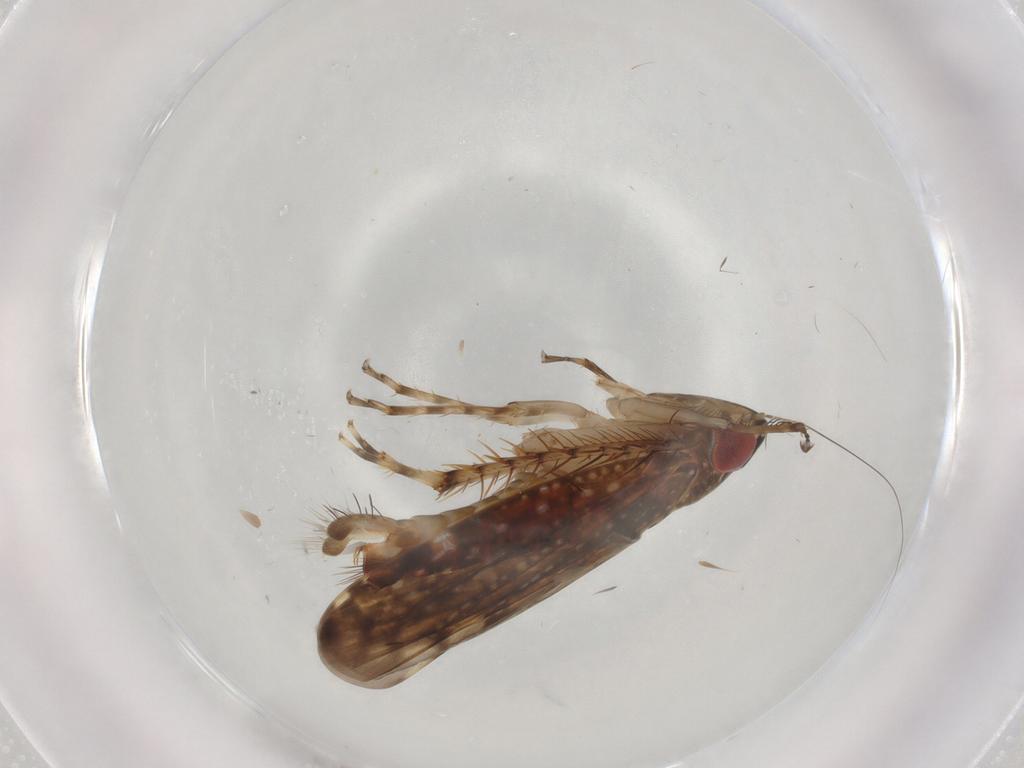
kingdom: Animalia
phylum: Arthropoda
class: Insecta
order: Hemiptera
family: Cicadellidae
